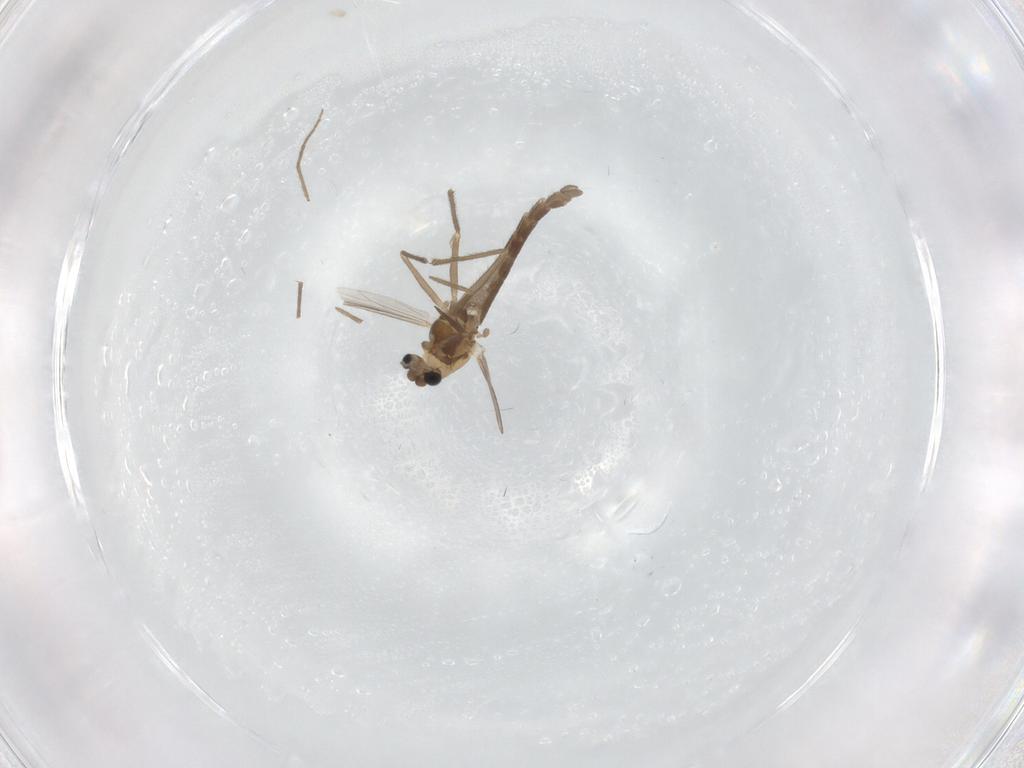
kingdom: Animalia
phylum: Arthropoda
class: Insecta
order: Diptera
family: Chironomidae
